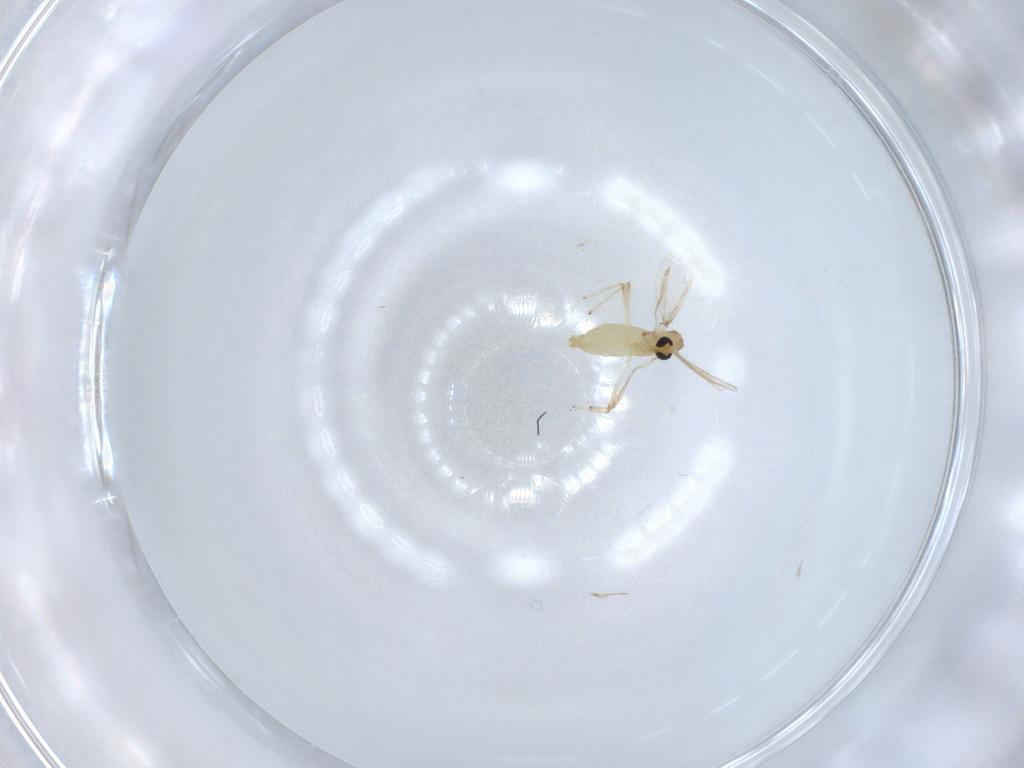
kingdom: Animalia
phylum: Arthropoda
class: Insecta
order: Diptera
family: Chironomidae
